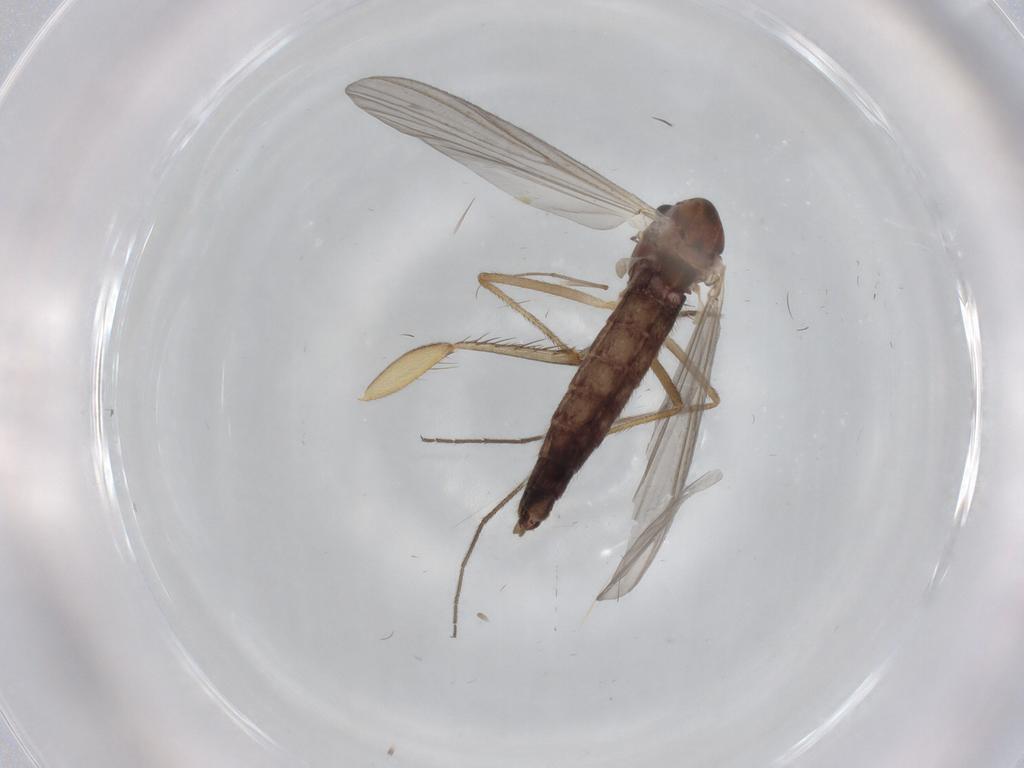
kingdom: Animalia
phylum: Arthropoda
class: Insecta
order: Diptera
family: Chironomidae
